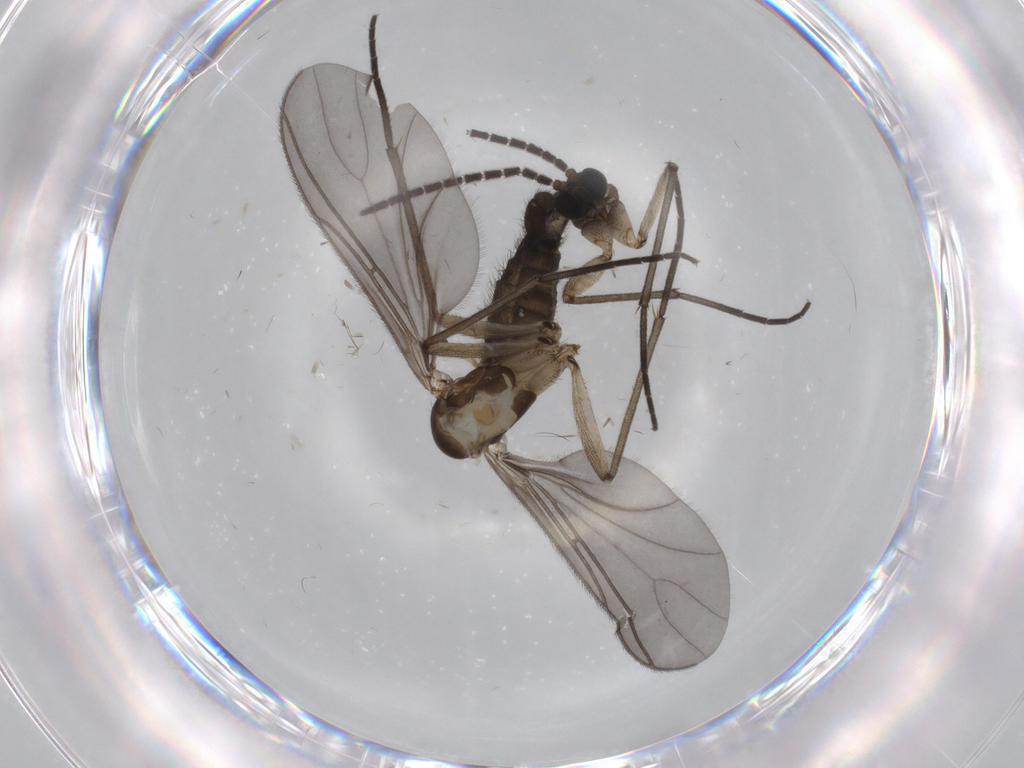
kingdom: Animalia
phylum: Arthropoda
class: Insecta
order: Diptera
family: Sciaridae
